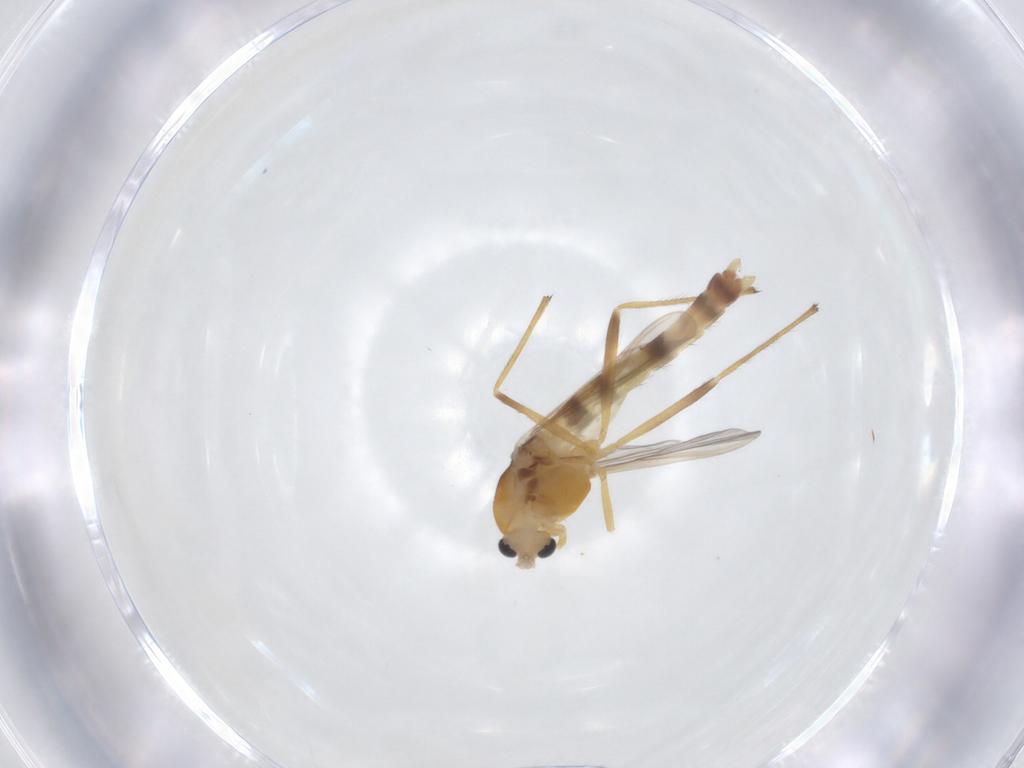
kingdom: Animalia
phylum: Arthropoda
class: Insecta
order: Diptera
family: Chironomidae
